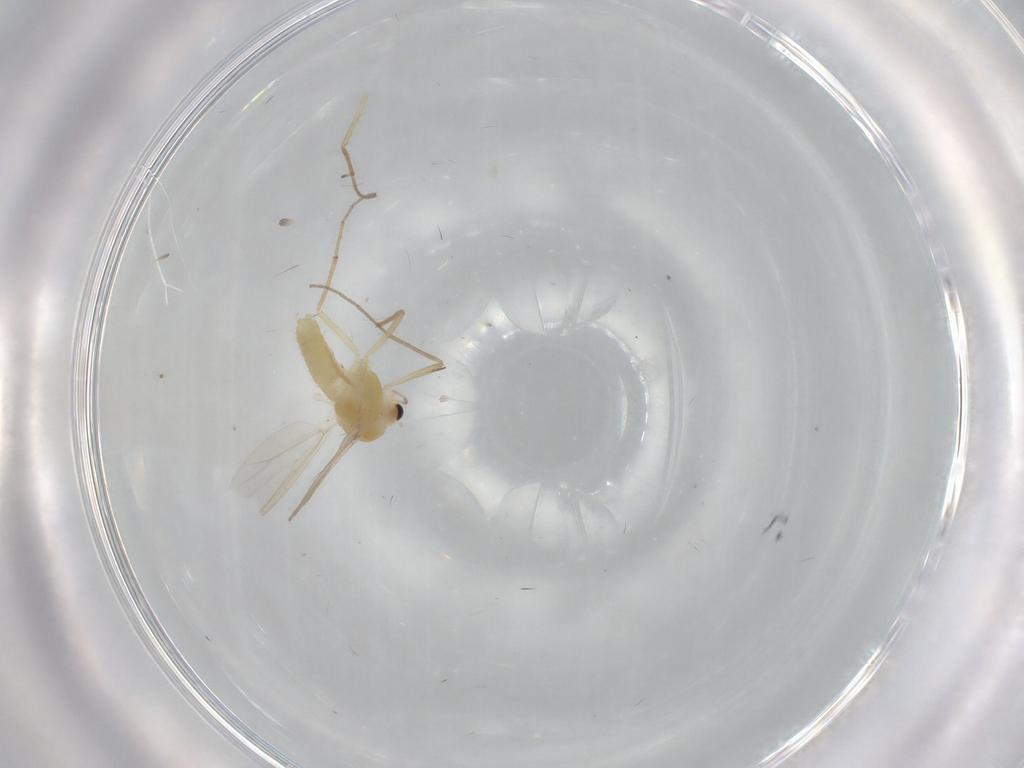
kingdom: Animalia
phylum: Arthropoda
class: Insecta
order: Diptera
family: Chironomidae
